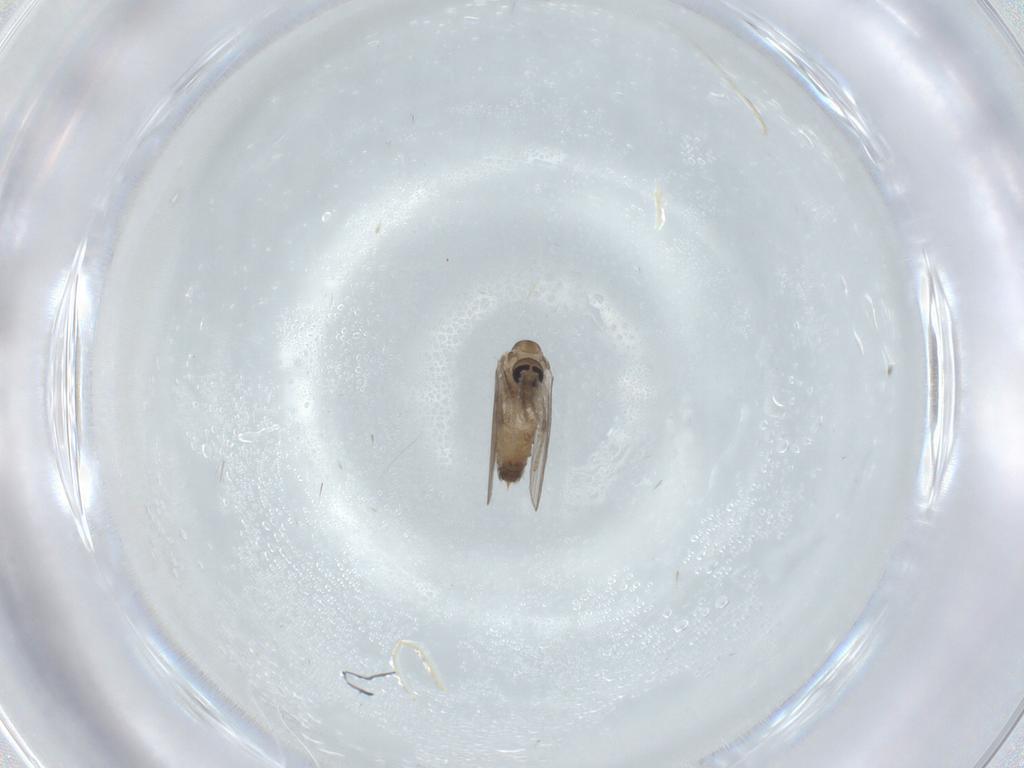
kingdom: Animalia
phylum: Arthropoda
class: Insecta
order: Diptera
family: Psychodidae
